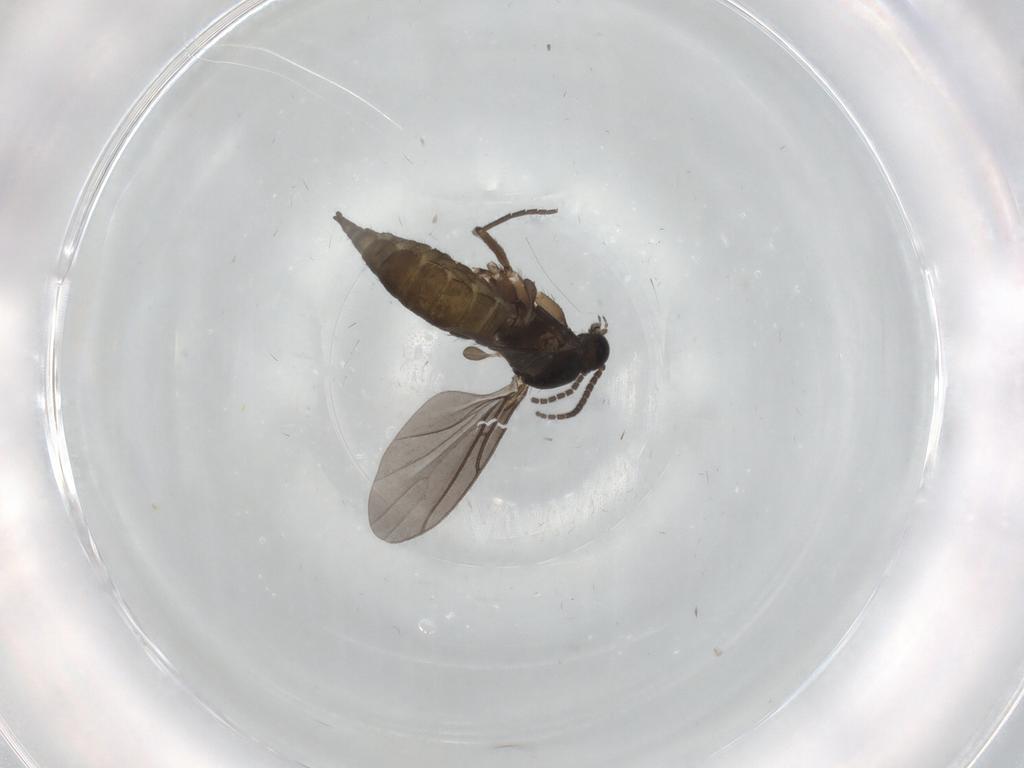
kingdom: Animalia
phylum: Arthropoda
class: Insecta
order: Diptera
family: Sciaridae
